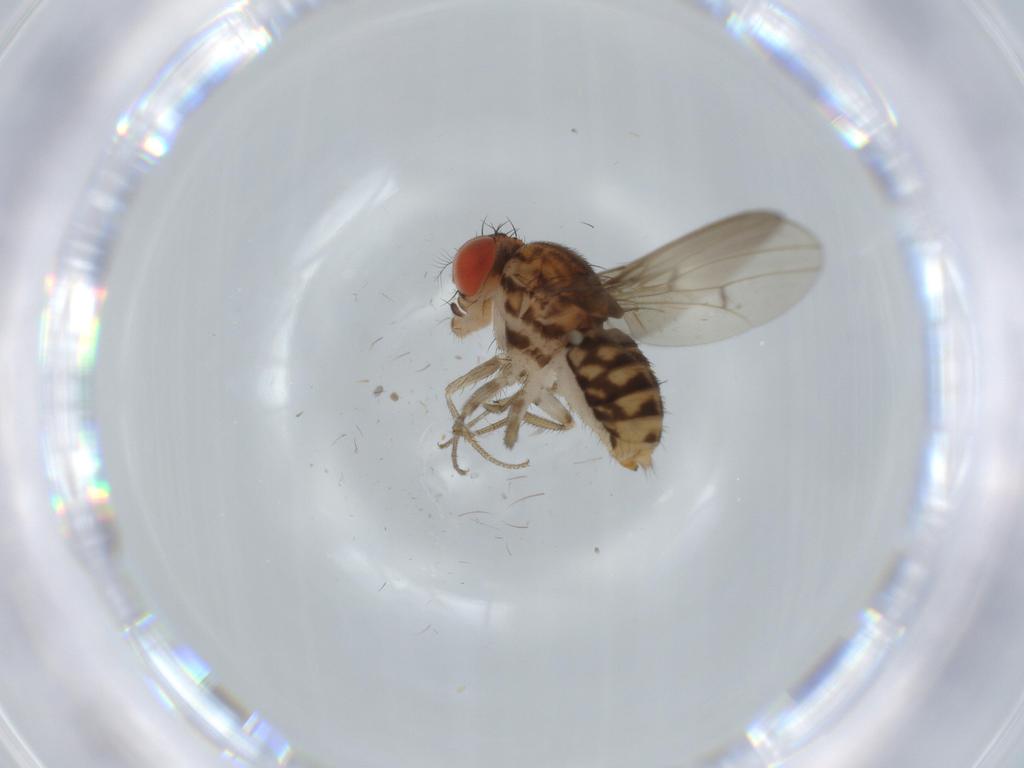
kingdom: Animalia
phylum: Arthropoda
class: Insecta
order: Diptera
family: Drosophilidae
